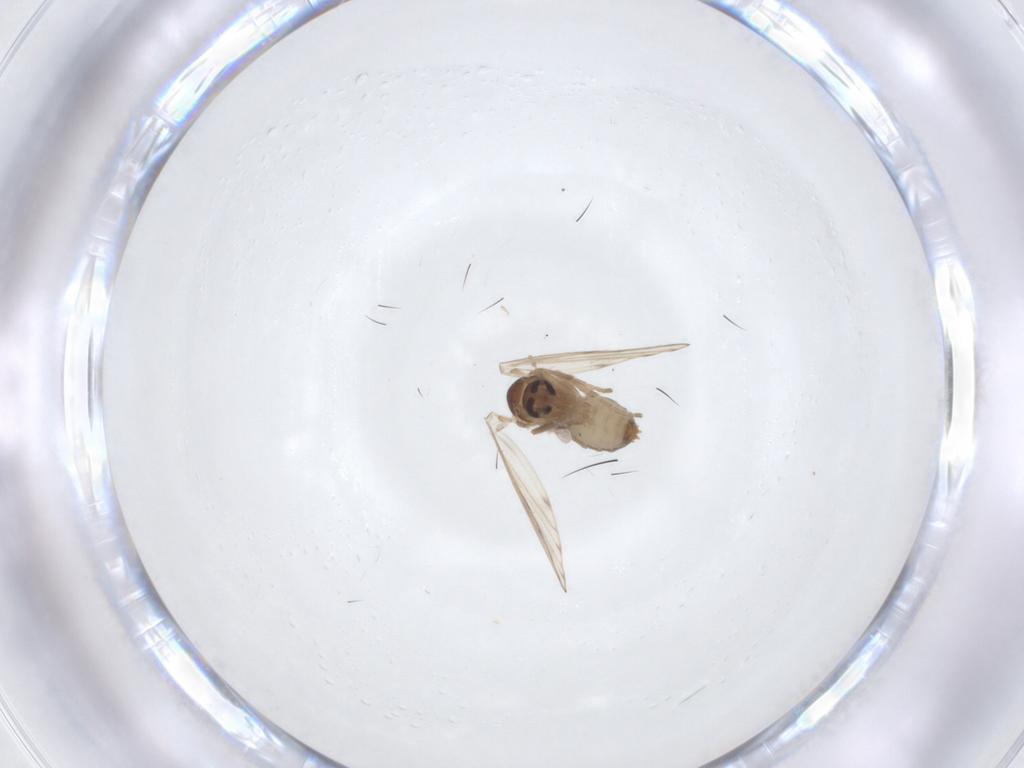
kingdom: Animalia
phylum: Arthropoda
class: Insecta
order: Diptera
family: Psychodidae
